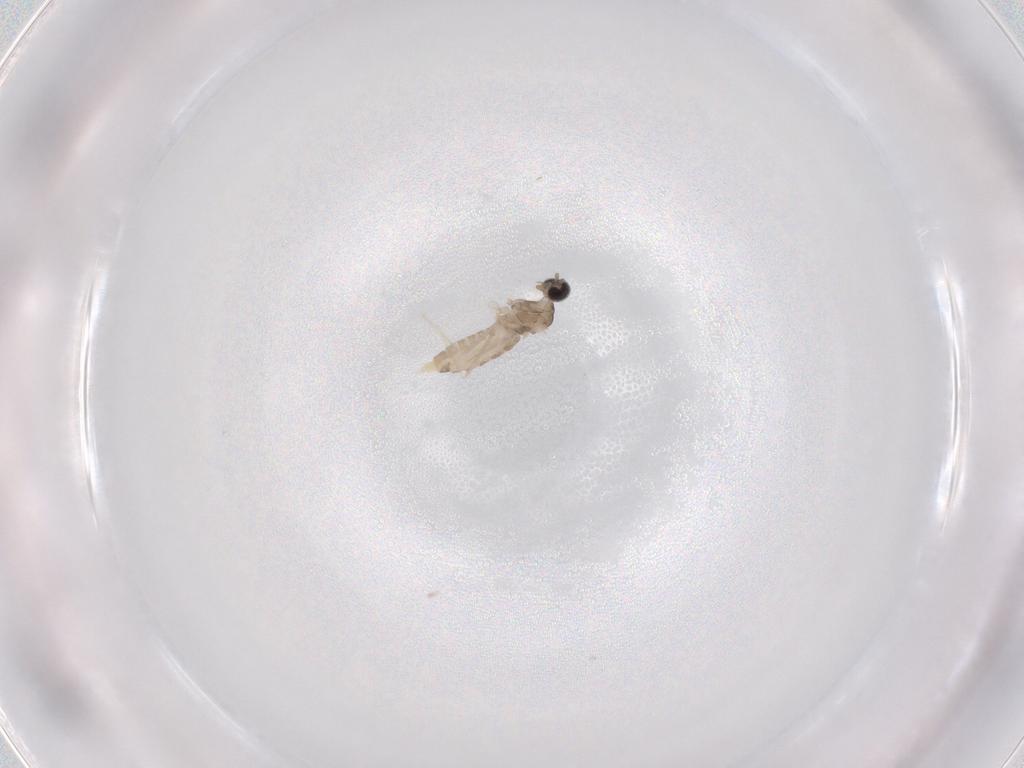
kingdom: Animalia
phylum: Arthropoda
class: Insecta
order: Diptera
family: Cecidomyiidae
